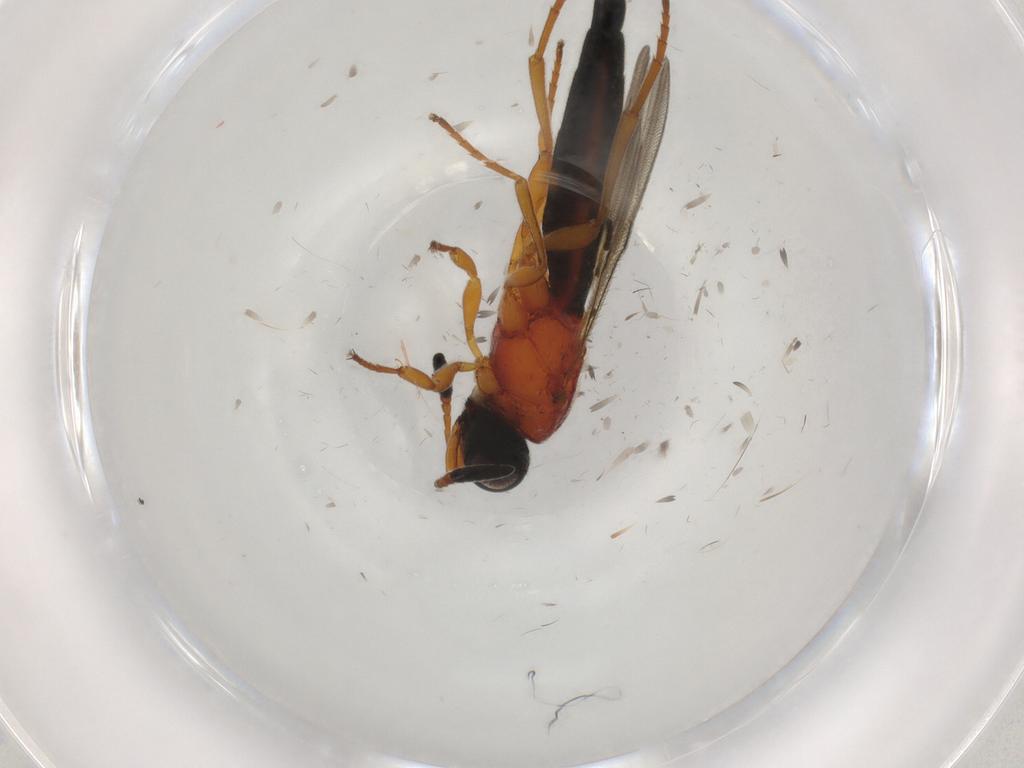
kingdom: Animalia
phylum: Arthropoda
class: Insecta
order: Hymenoptera
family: Scelionidae
